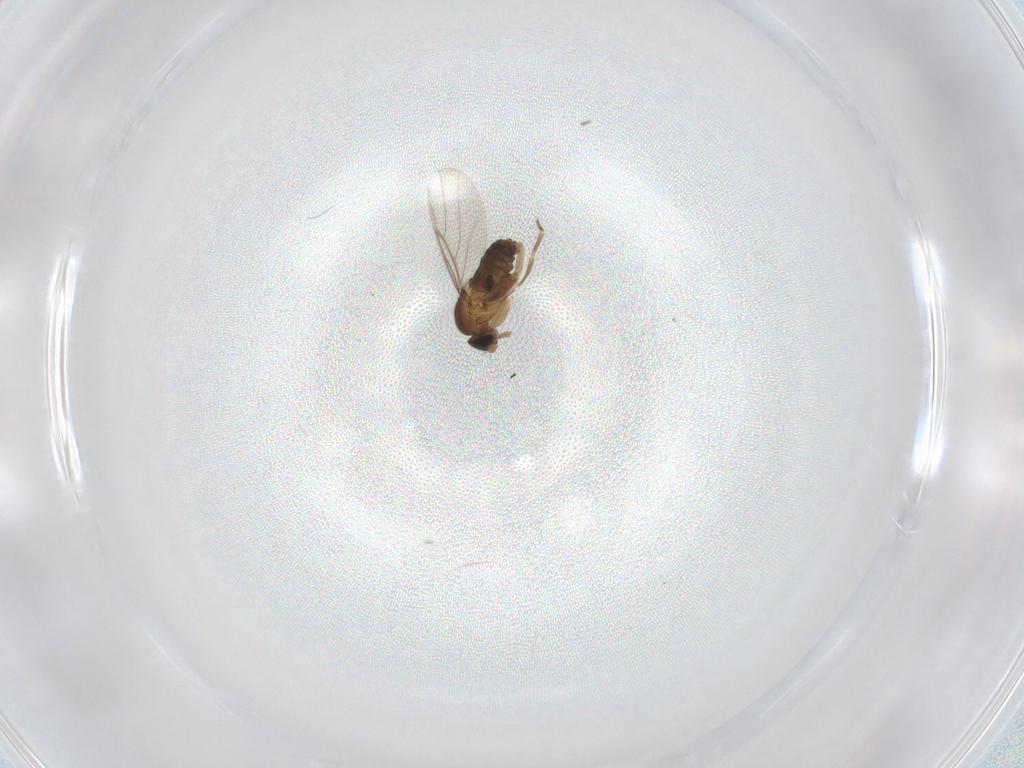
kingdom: Animalia
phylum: Arthropoda
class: Insecta
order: Diptera
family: Phoridae
